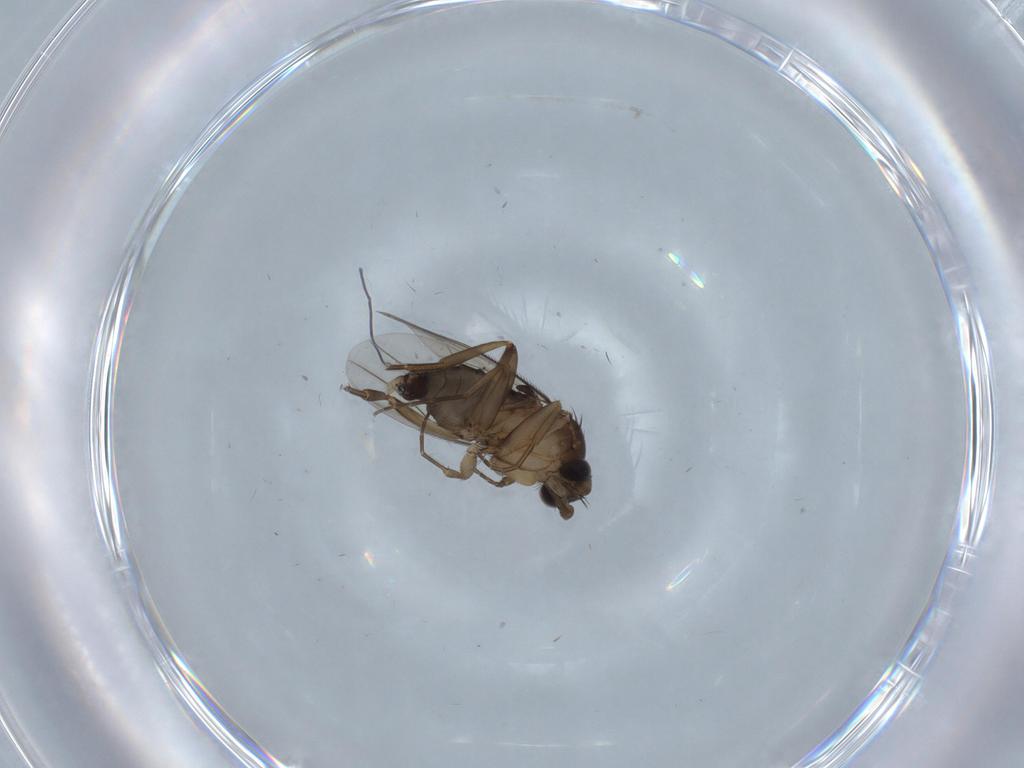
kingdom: Animalia
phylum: Arthropoda
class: Insecta
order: Diptera
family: Phoridae
